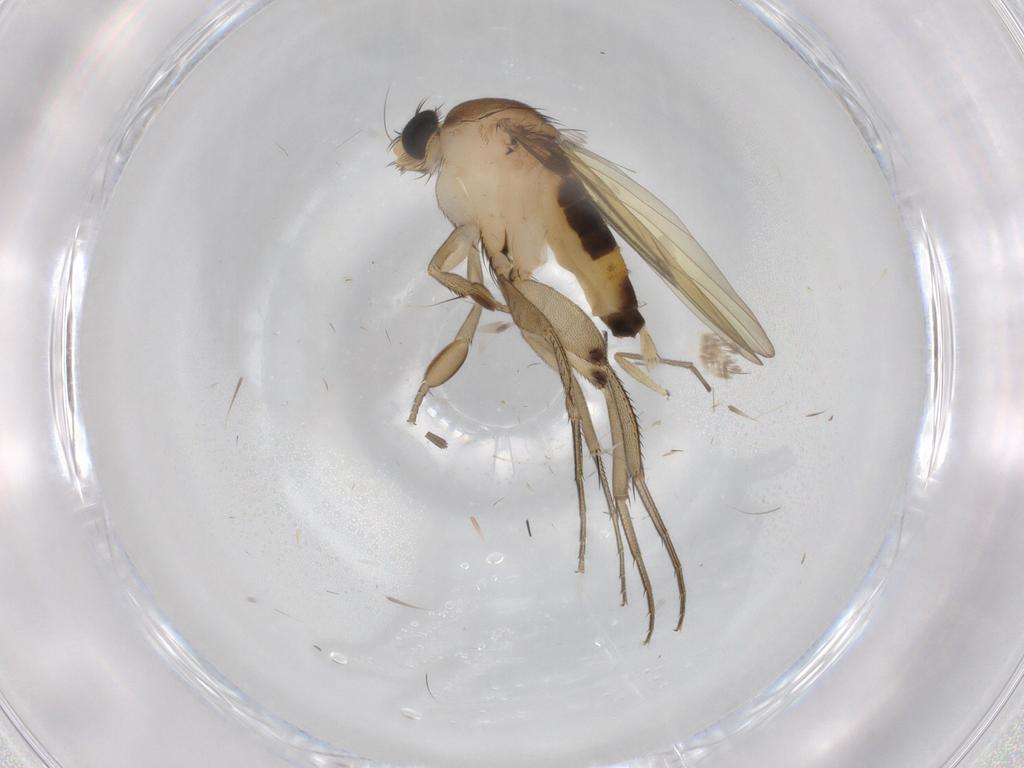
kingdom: Animalia
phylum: Arthropoda
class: Insecta
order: Diptera
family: Phoridae
